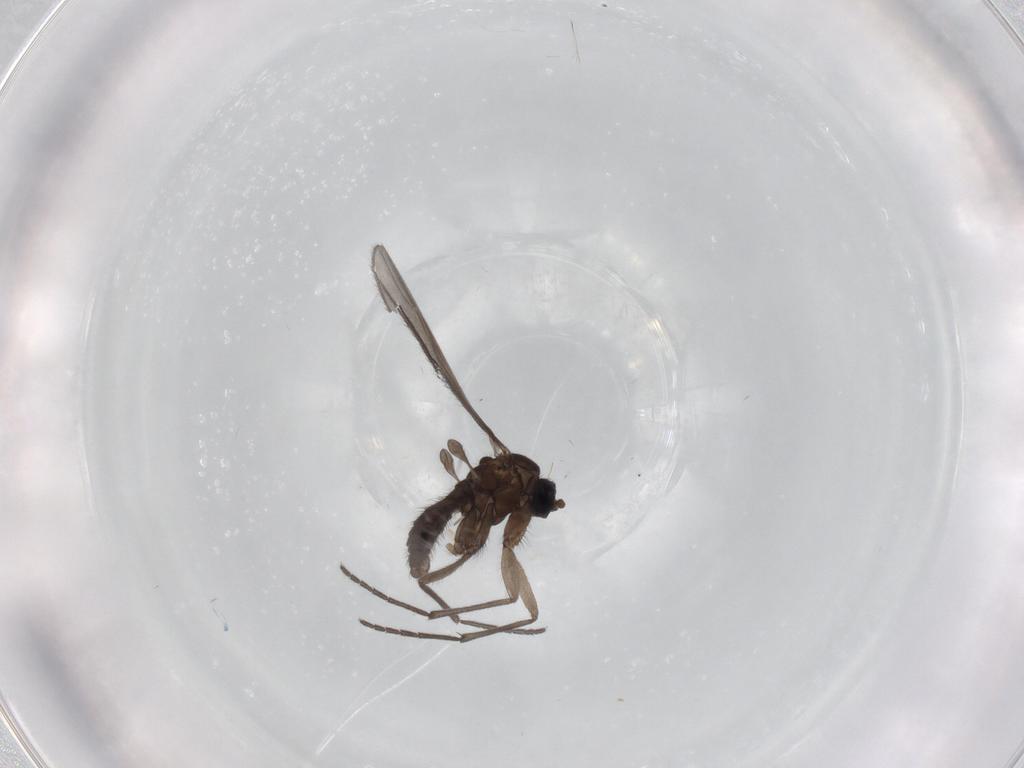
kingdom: Animalia
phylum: Arthropoda
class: Insecta
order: Diptera
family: Sciaridae
